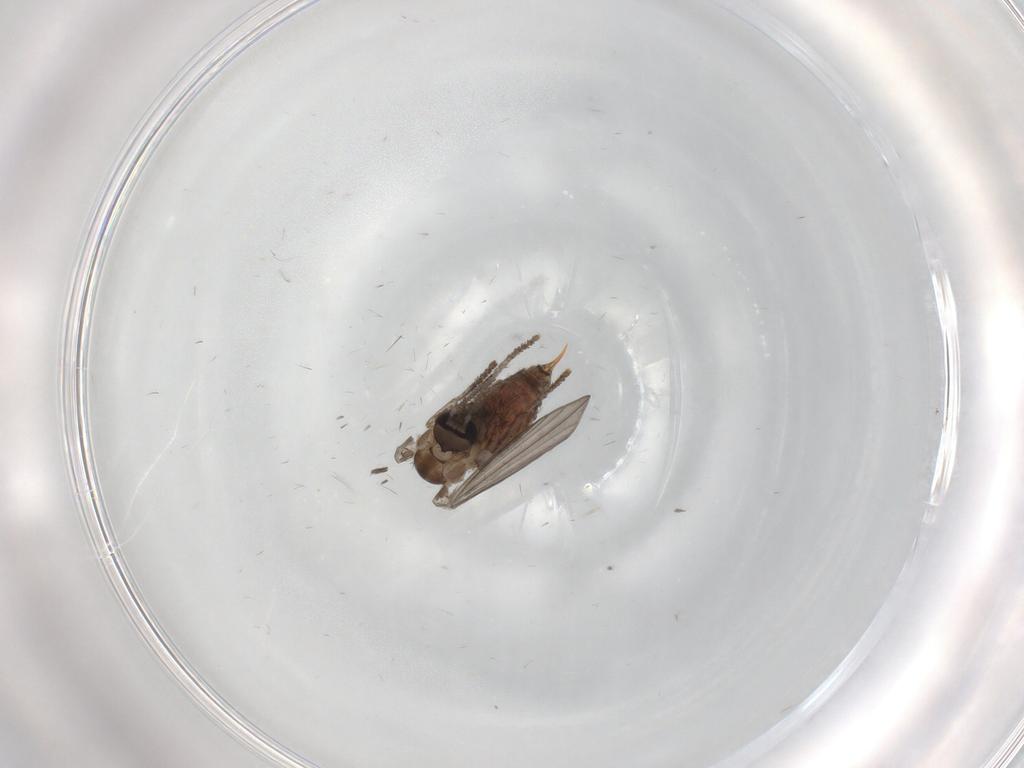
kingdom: Animalia
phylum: Arthropoda
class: Insecta
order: Diptera
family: Psychodidae
